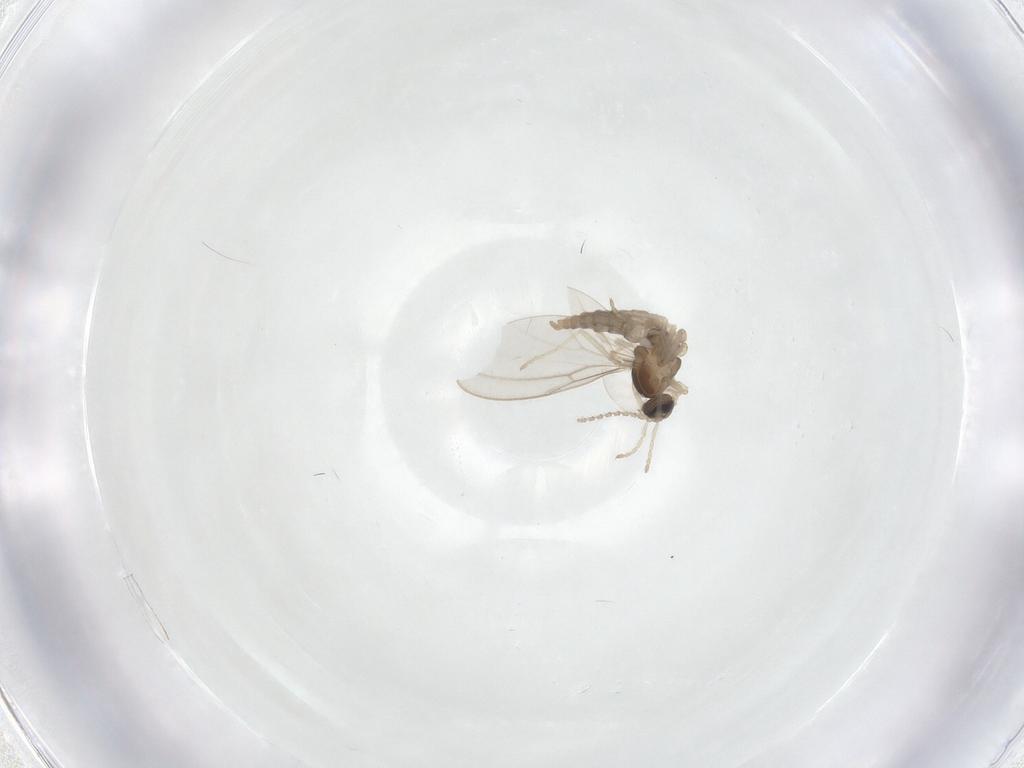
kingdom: Animalia
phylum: Arthropoda
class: Insecta
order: Diptera
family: Cecidomyiidae
